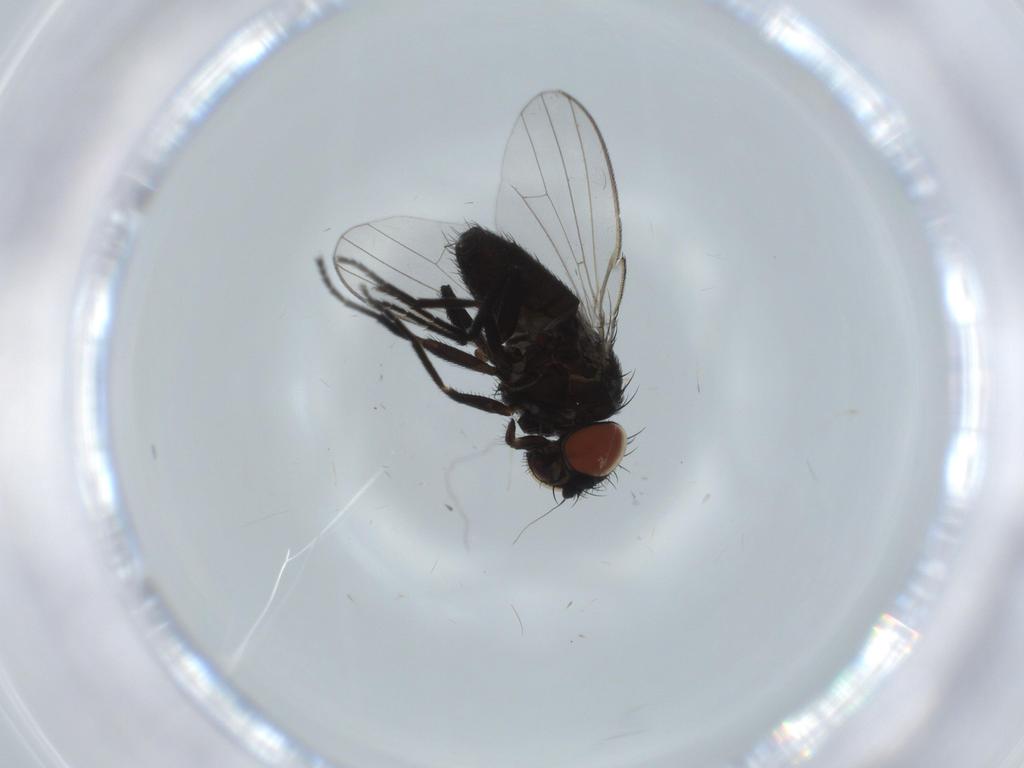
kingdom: Animalia
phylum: Arthropoda
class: Insecta
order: Diptera
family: Milichiidae
